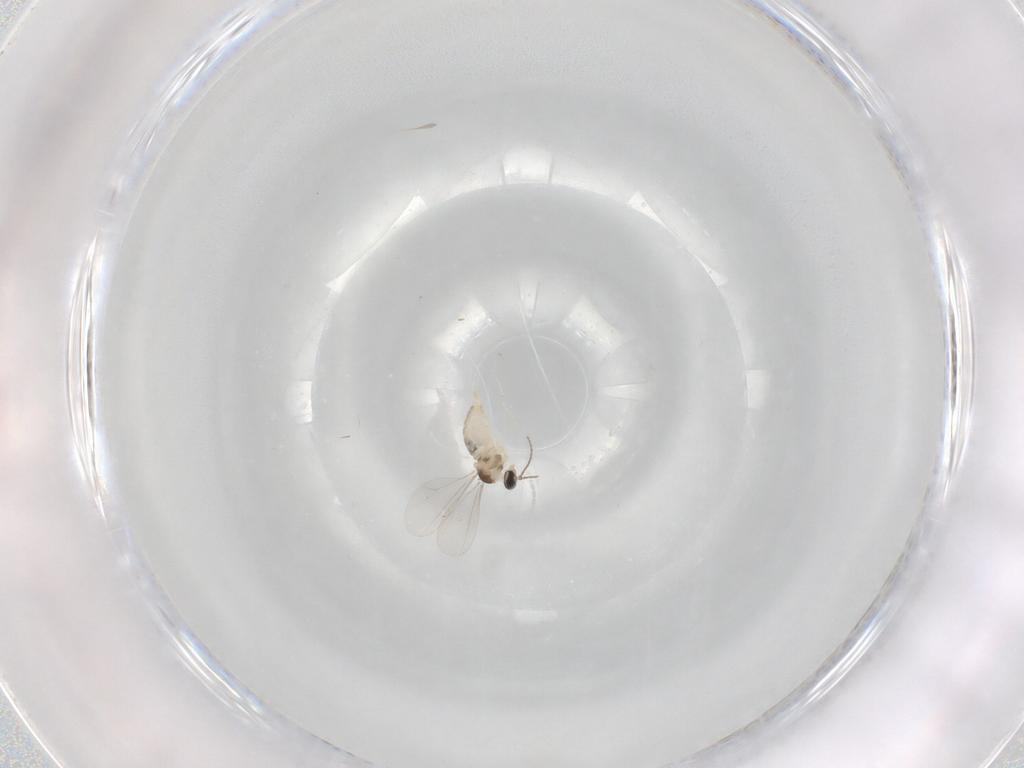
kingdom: Animalia
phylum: Arthropoda
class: Insecta
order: Diptera
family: Cecidomyiidae
